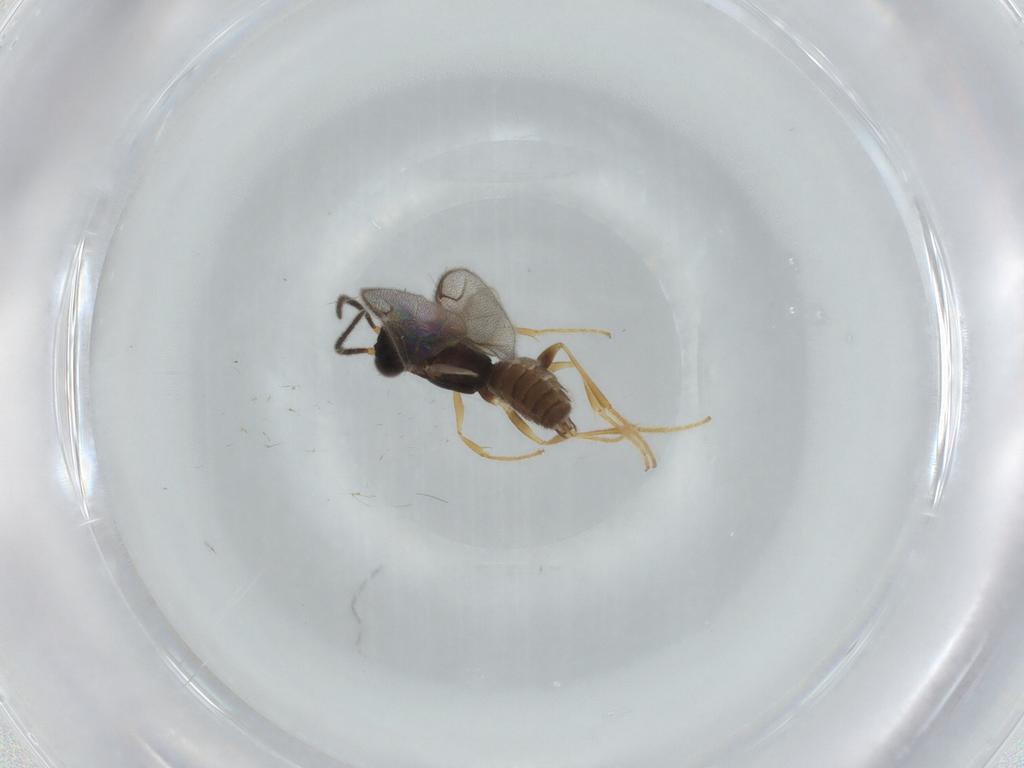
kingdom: Animalia
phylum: Arthropoda
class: Insecta
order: Hymenoptera
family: Dryinidae
